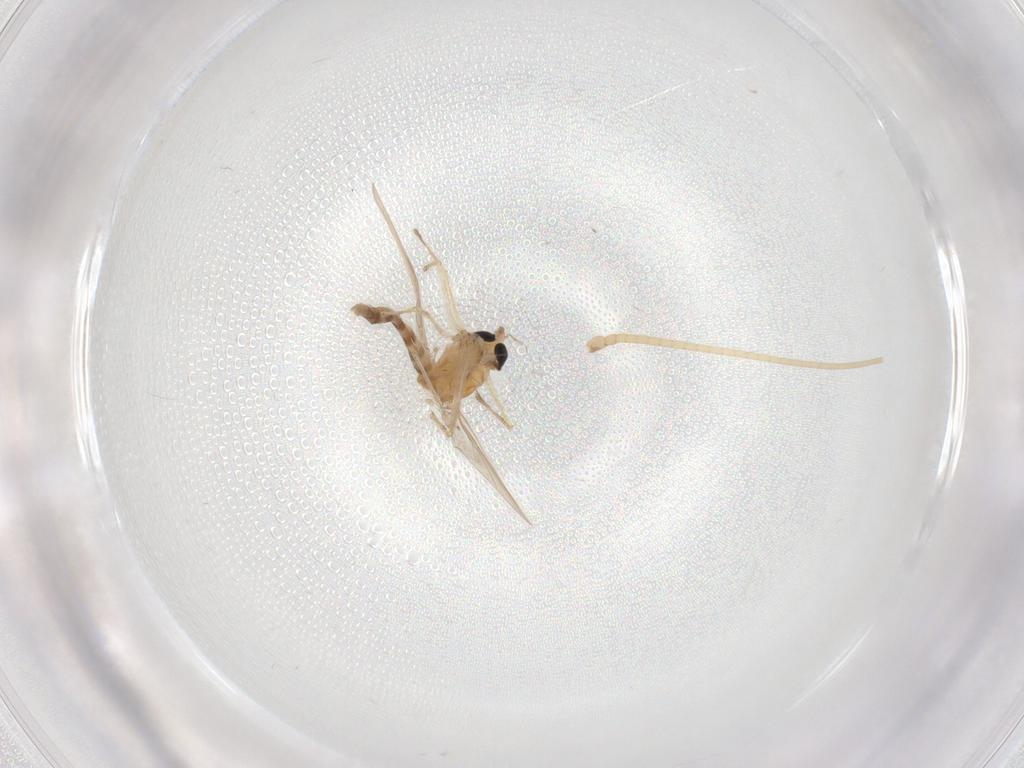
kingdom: Animalia
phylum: Arthropoda
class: Insecta
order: Diptera
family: Chironomidae
